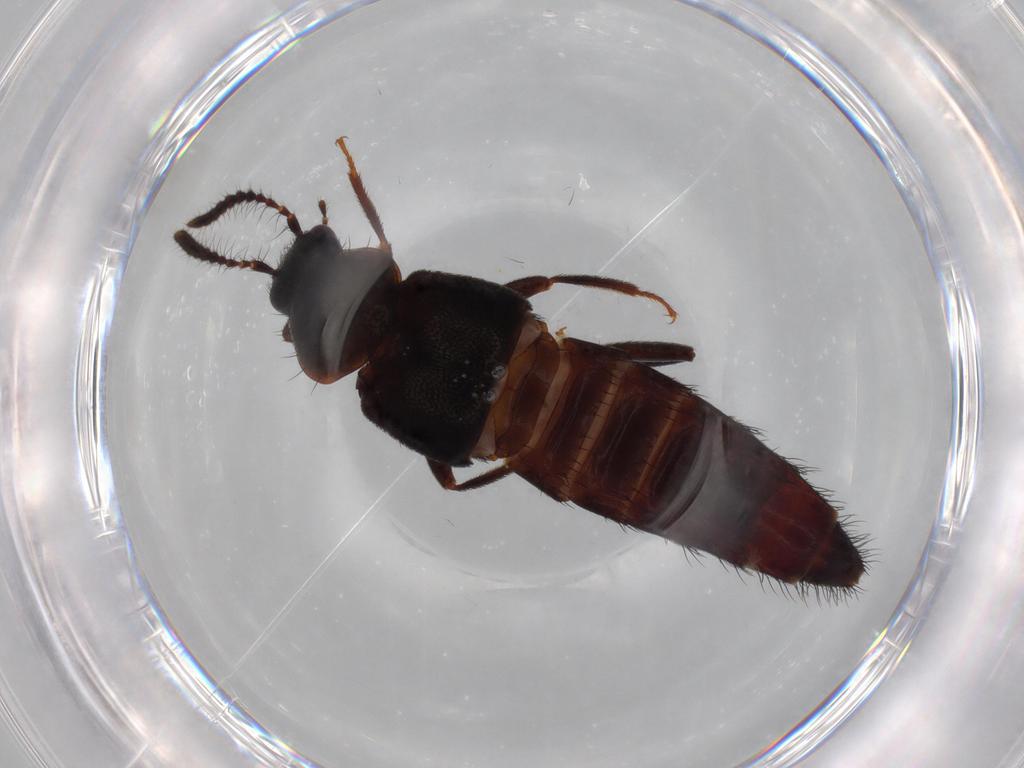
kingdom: Animalia
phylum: Arthropoda
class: Insecta
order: Coleoptera
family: Staphylinidae
